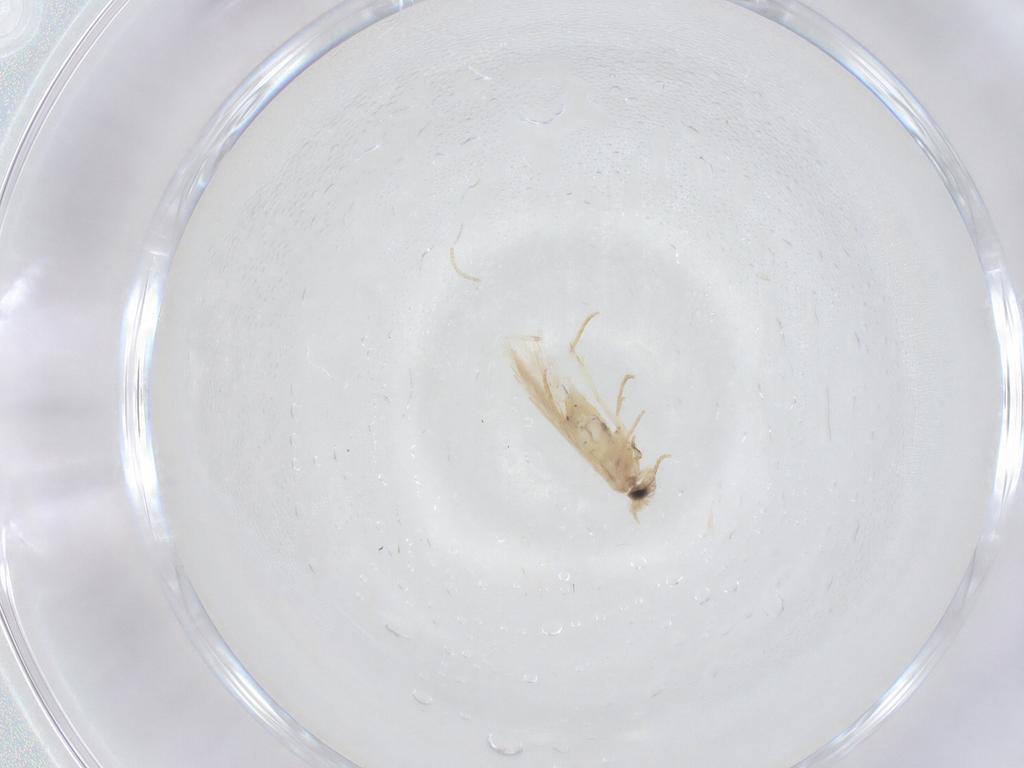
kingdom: Animalia
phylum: Arthropoda
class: Insecta
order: Lepidoptera
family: Nepticulidae
